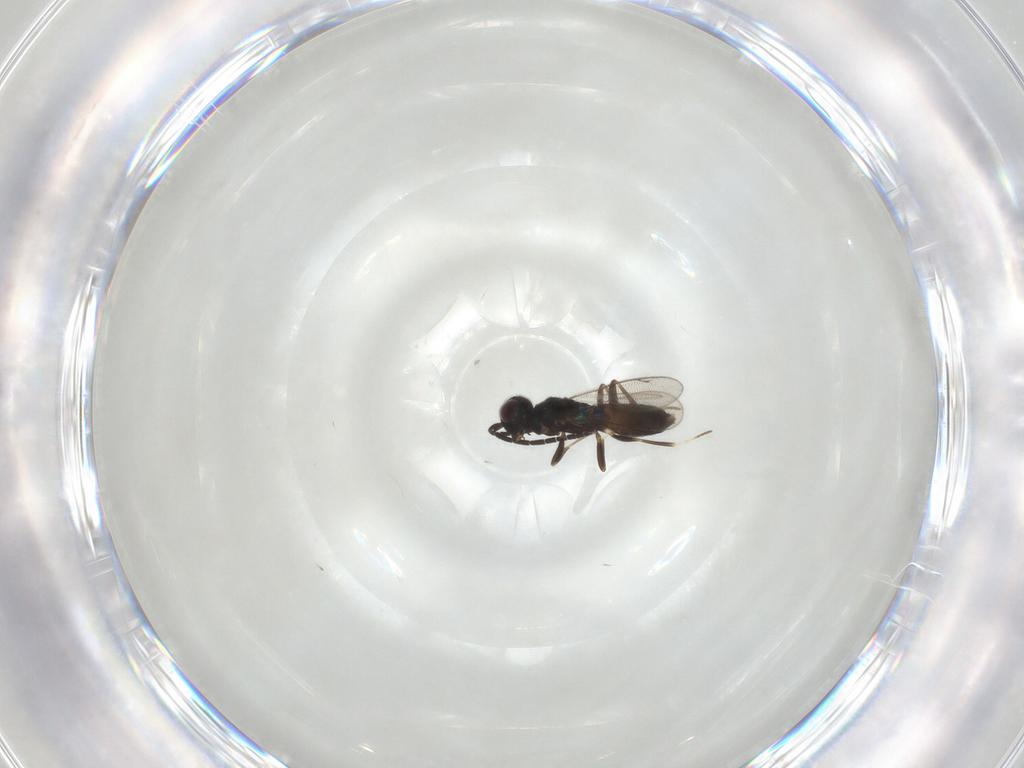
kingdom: Animalia
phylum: Arthropoda
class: Insecta
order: Hymenoptera
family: Eupelmidae
